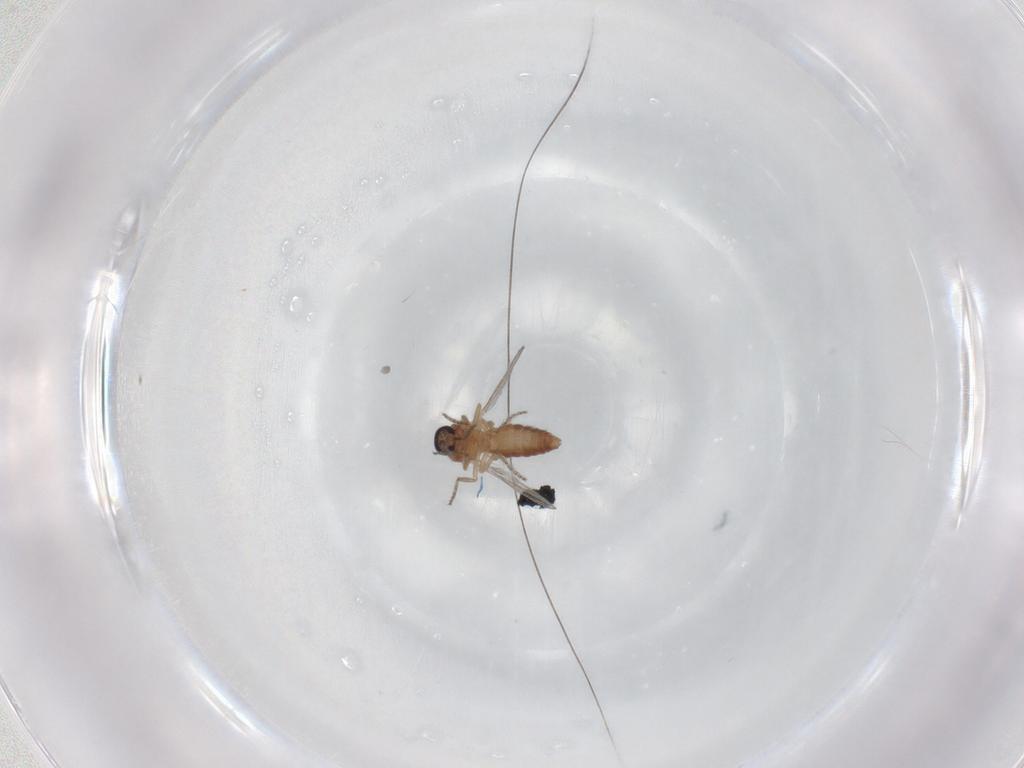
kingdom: Animalia
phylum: Arthropoda
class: Insecta
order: Diptera
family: Ceratopogonidae
